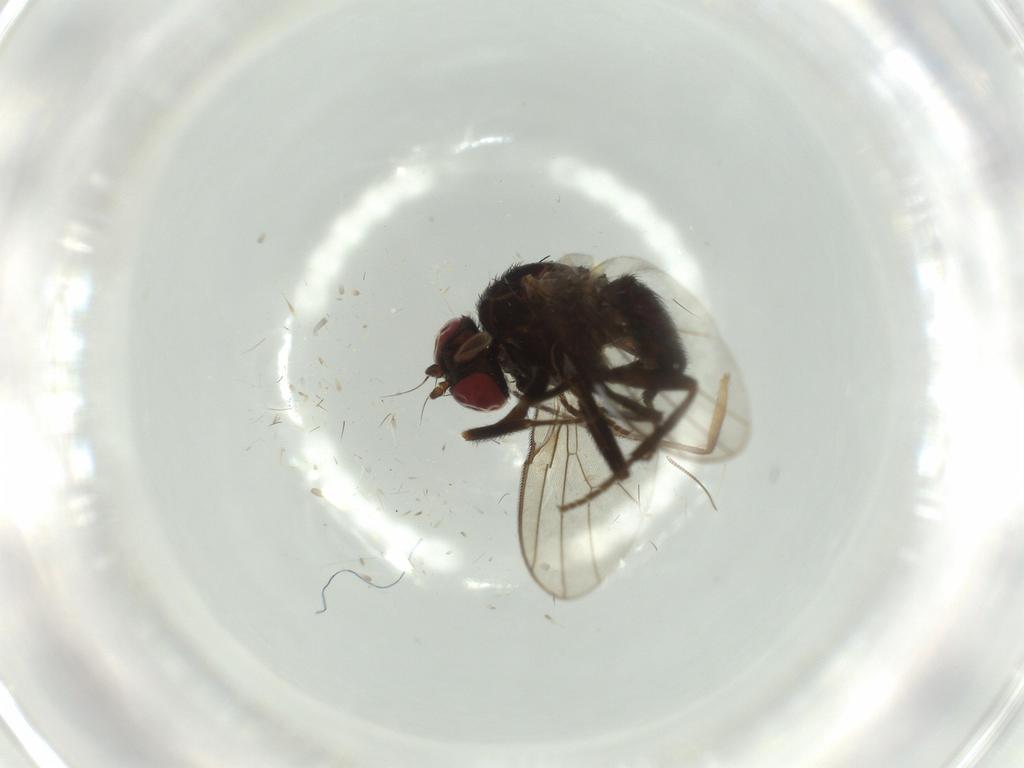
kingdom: Animalia
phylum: Arthropoda
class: Insecta
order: Diptera
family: Agromyzidae
